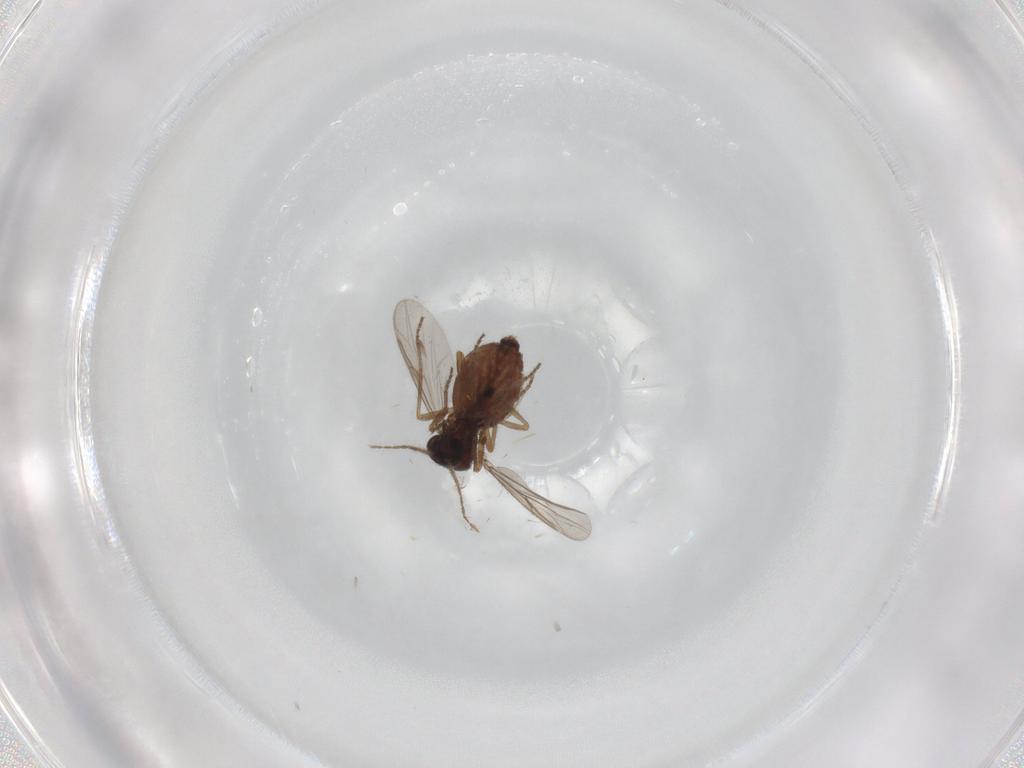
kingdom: Animalia
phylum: Arthropoda
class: Insecta
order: Diptera
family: Ceratopogonidae
